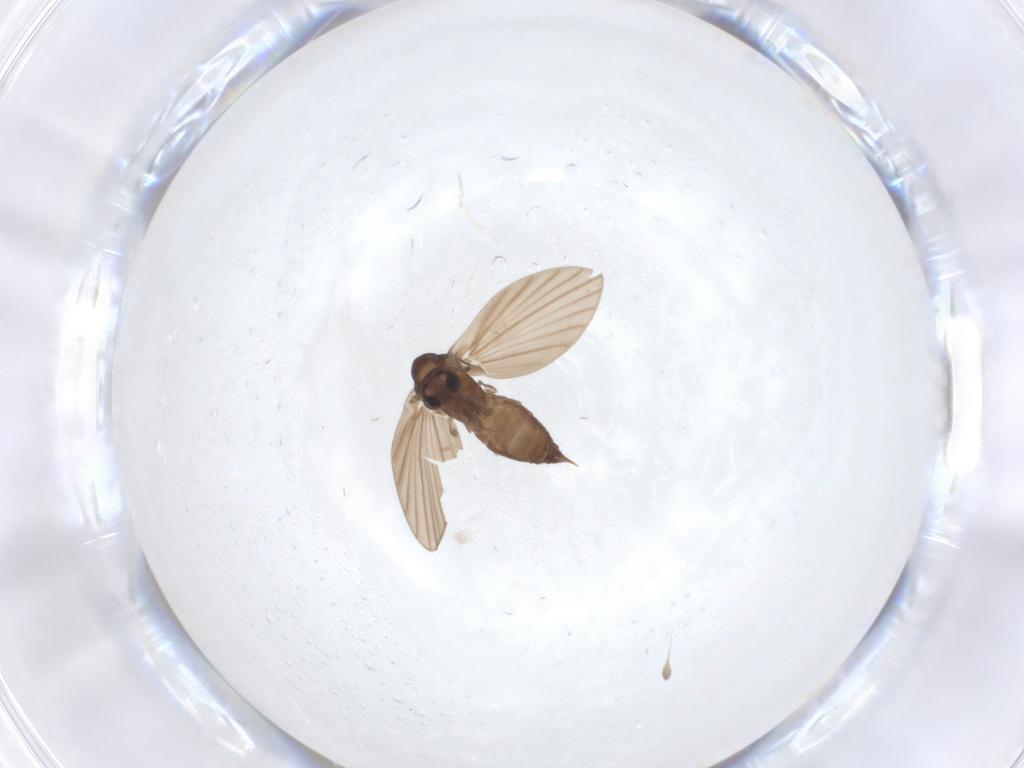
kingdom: Animalia
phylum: Arthropoda
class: Insecta
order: Diptera
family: Psychodidae
